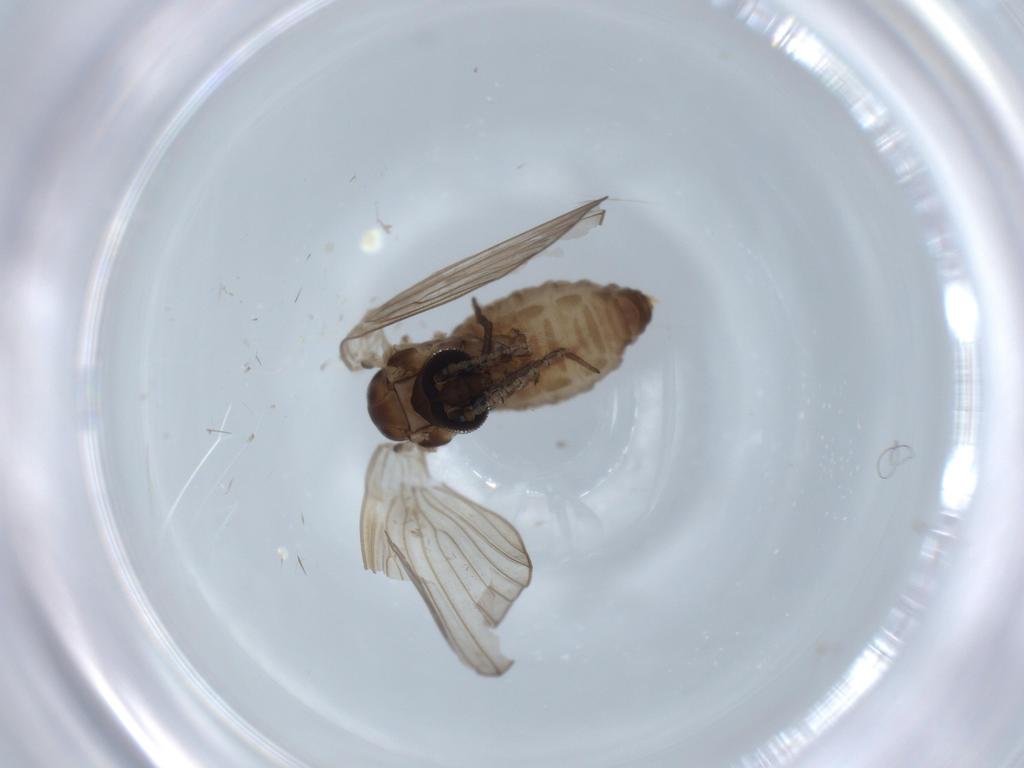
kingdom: Animalia
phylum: Arthropoda
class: Insecta
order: Diptera
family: Psychodidae
